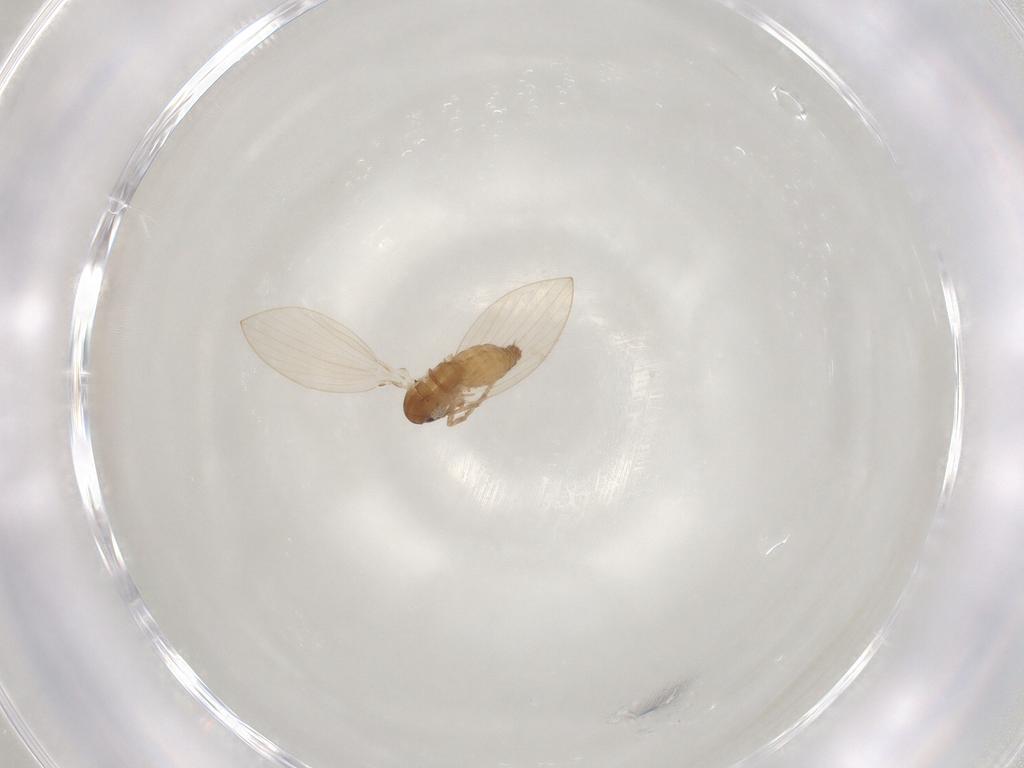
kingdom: Animalia
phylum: Arthropoda
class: Insecta
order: Diptera
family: Psychodidae
